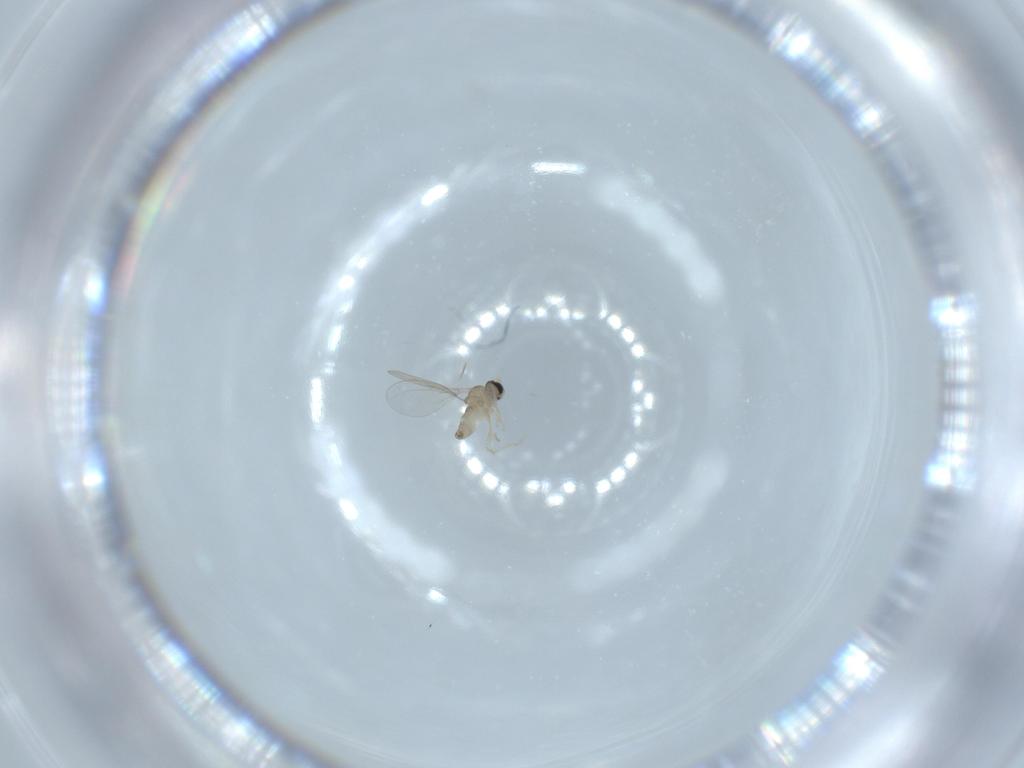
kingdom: Animalia
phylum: Arthropoda
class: Insecta
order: Diptera
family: Cecidomyiidae
